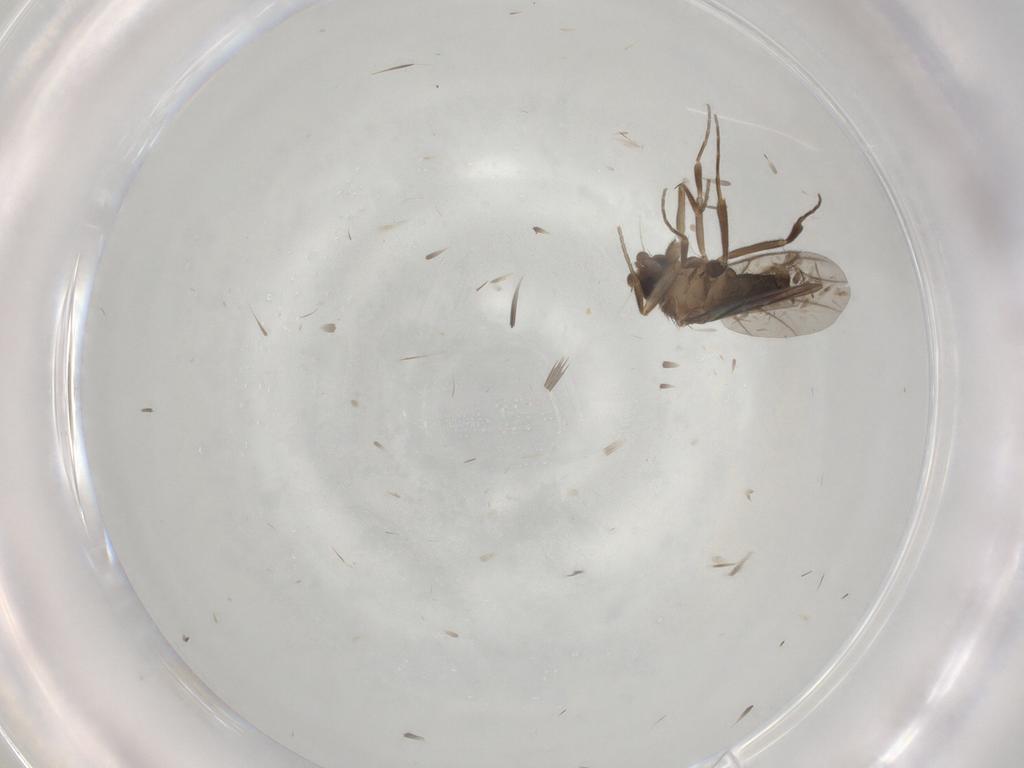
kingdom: Animalia
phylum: Arthropoda
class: Insecta
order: Diptera
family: Phoridae
